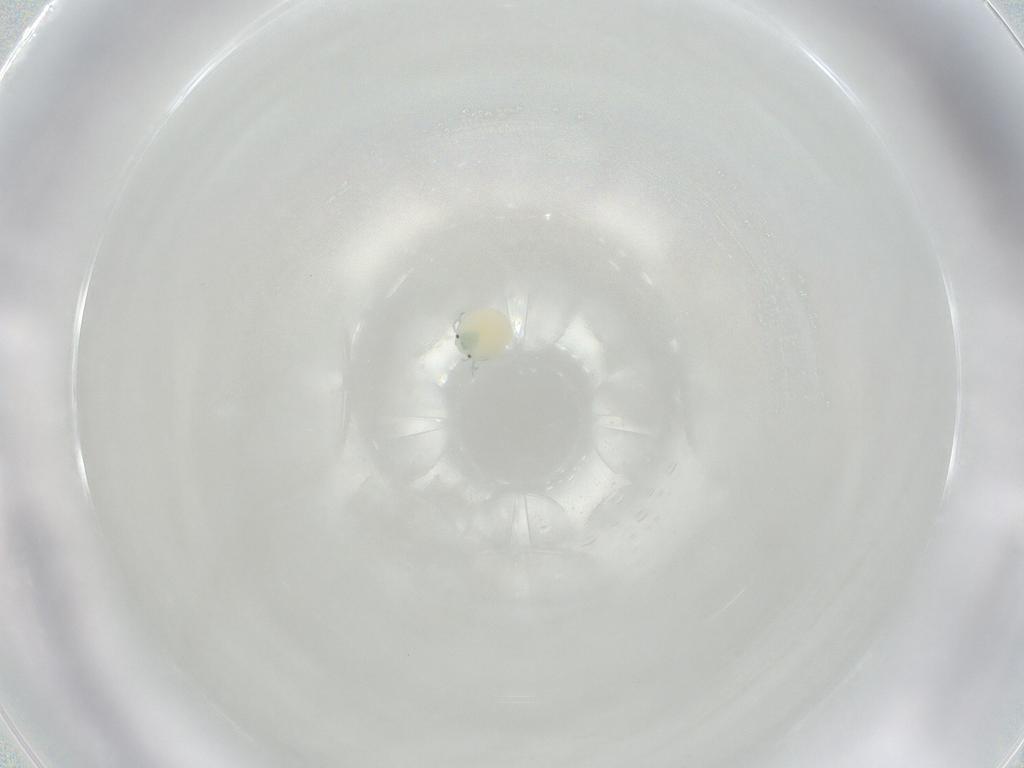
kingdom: Animalia
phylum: Arthropoda
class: Arachnida
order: Trombidiformes
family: Arrenuridae
